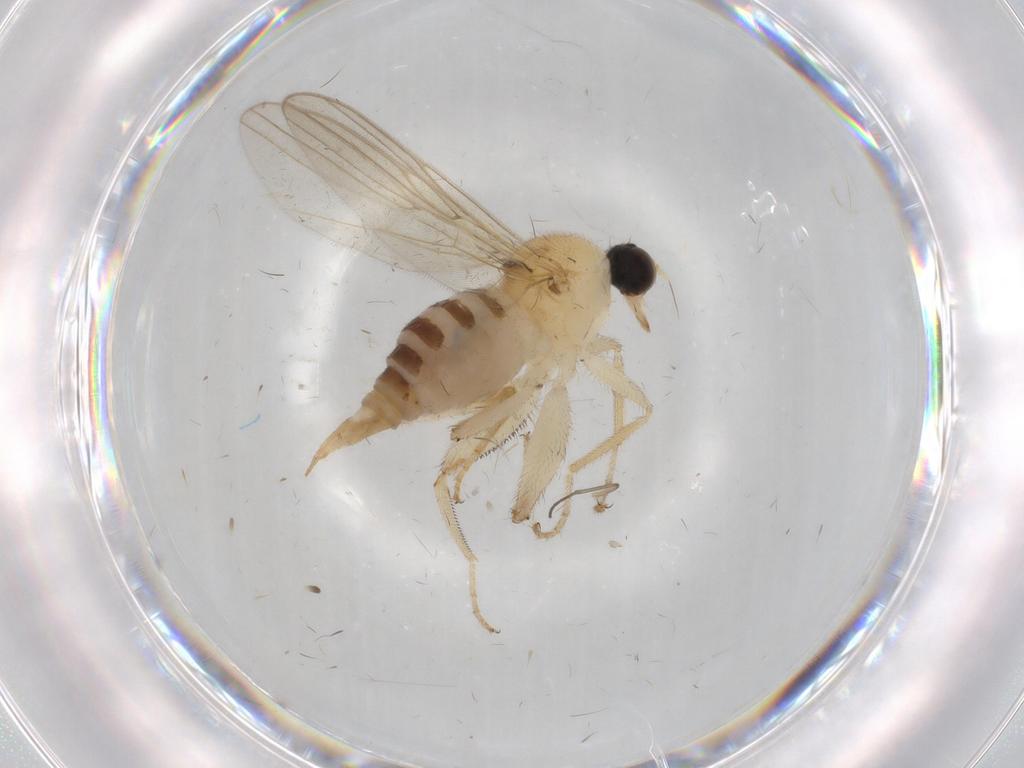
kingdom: Animalia
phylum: Arthropoda
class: Insecta
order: Diptera
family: Hybotidae
